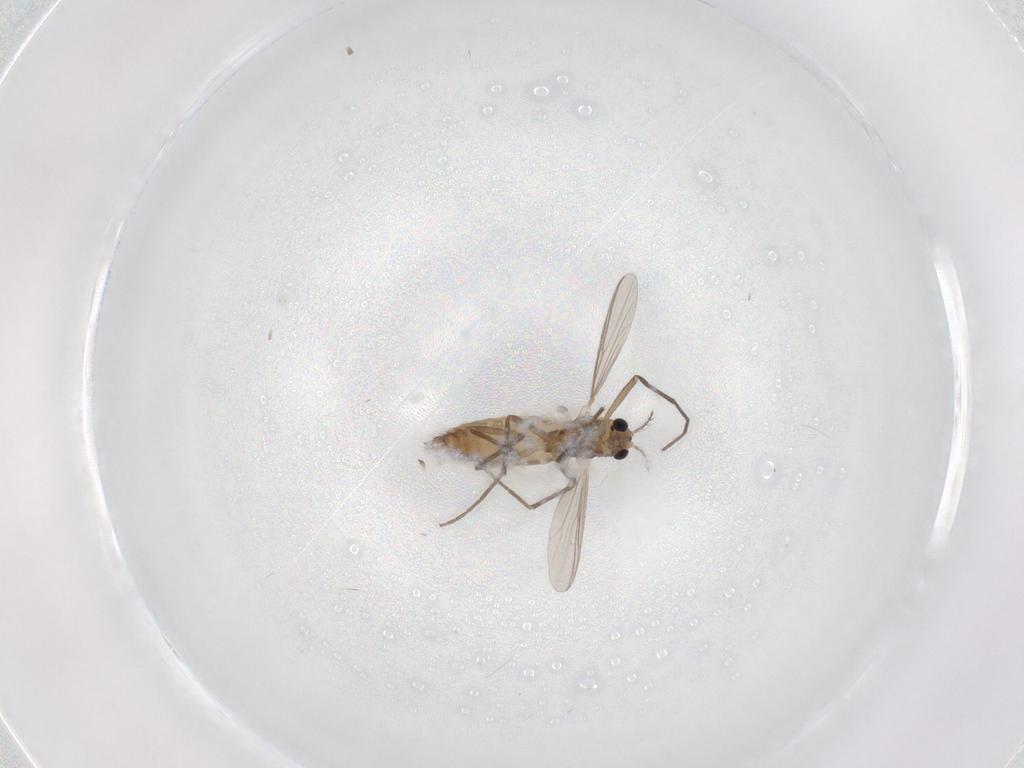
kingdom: Animalia
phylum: Arthropoda
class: Insecta
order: Diptera
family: Chironomidae
